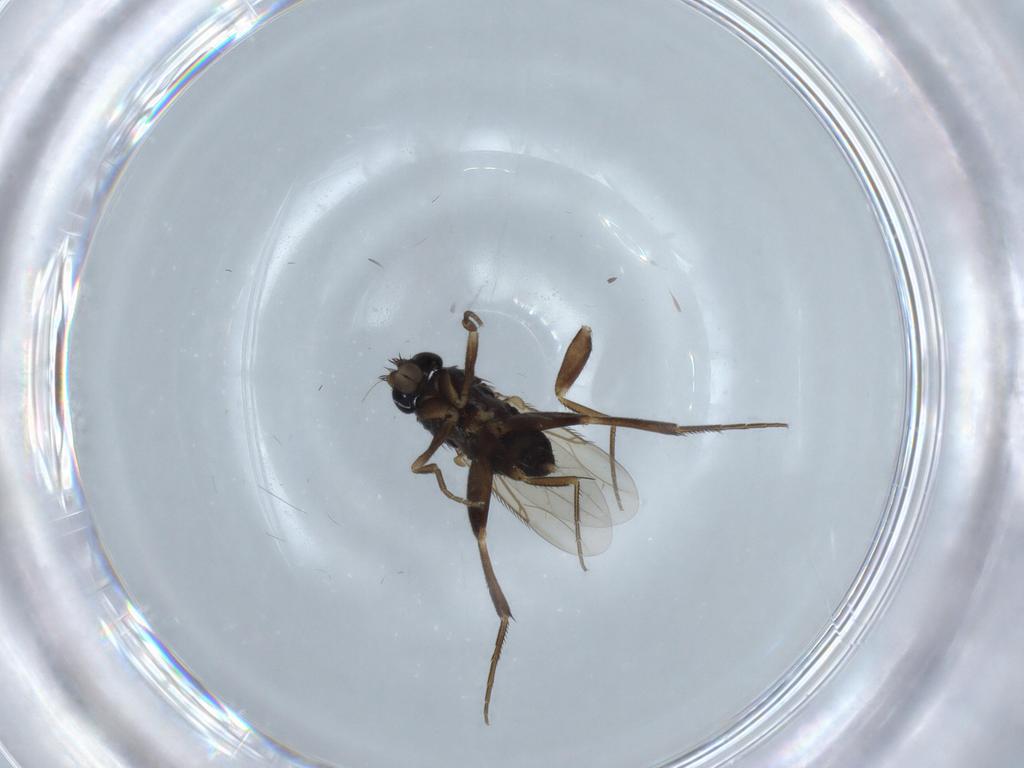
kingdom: Animalia
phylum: Arthropoda
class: Insecta
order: Diptera
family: Phoridae
